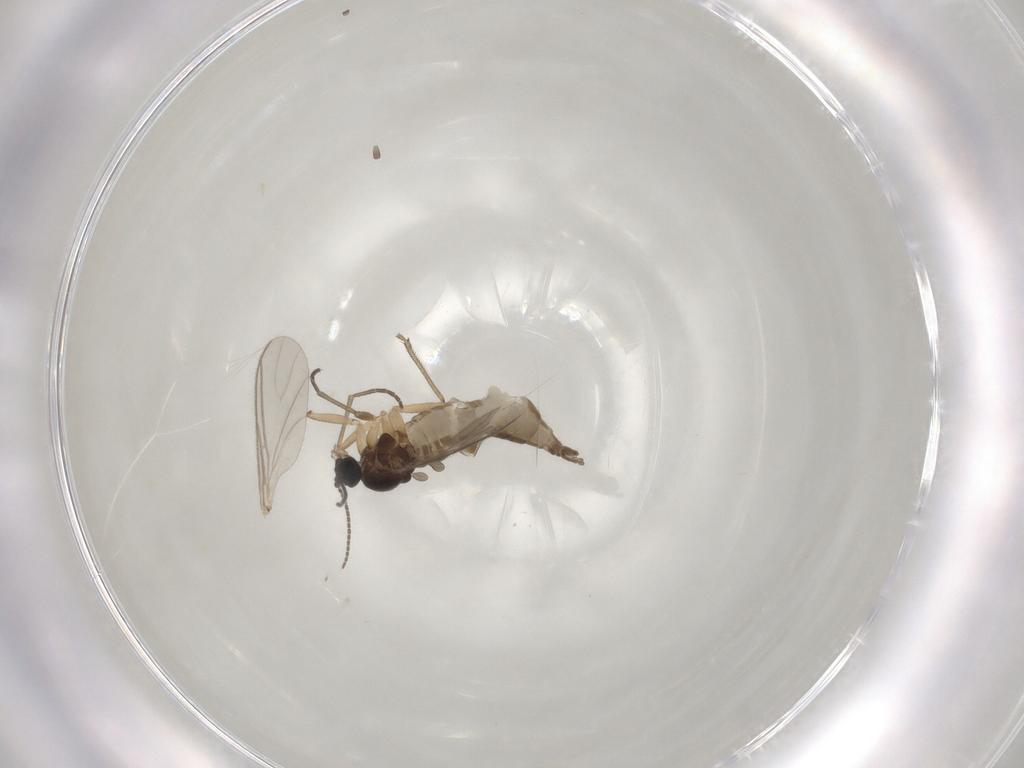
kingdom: Animalia
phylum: Arthropoda
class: Insecta
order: Diptera
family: Sciaridae
